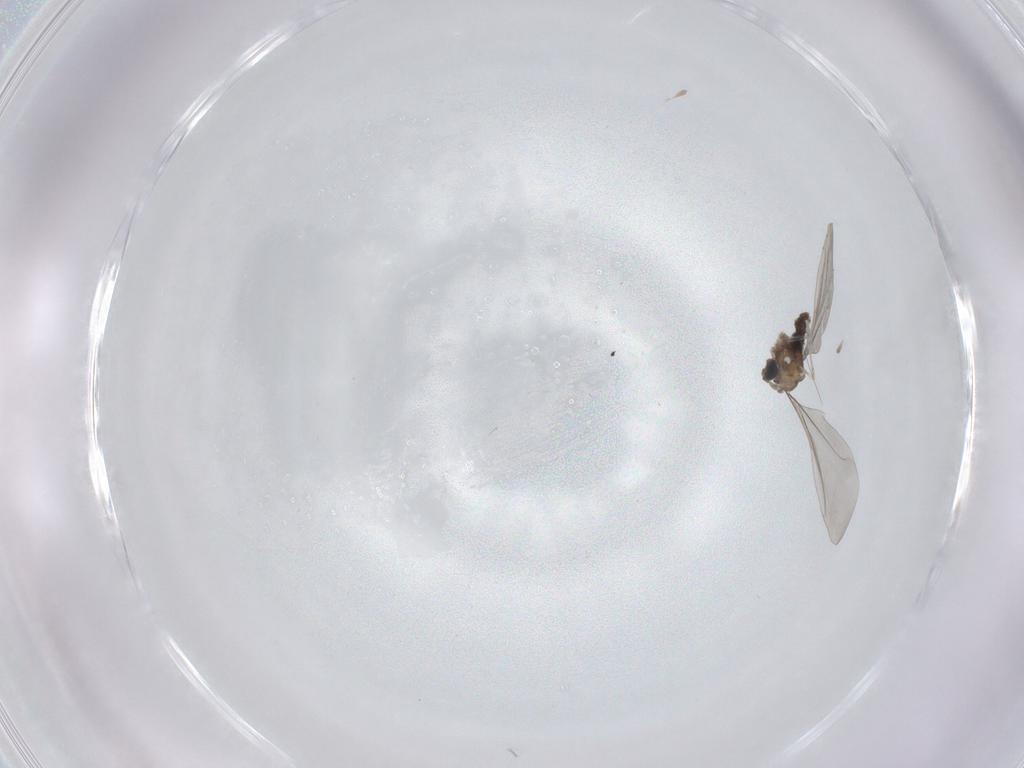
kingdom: Animalia
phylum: Arthropoda
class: Insecta
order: Diptera
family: Cecidomyiidae
